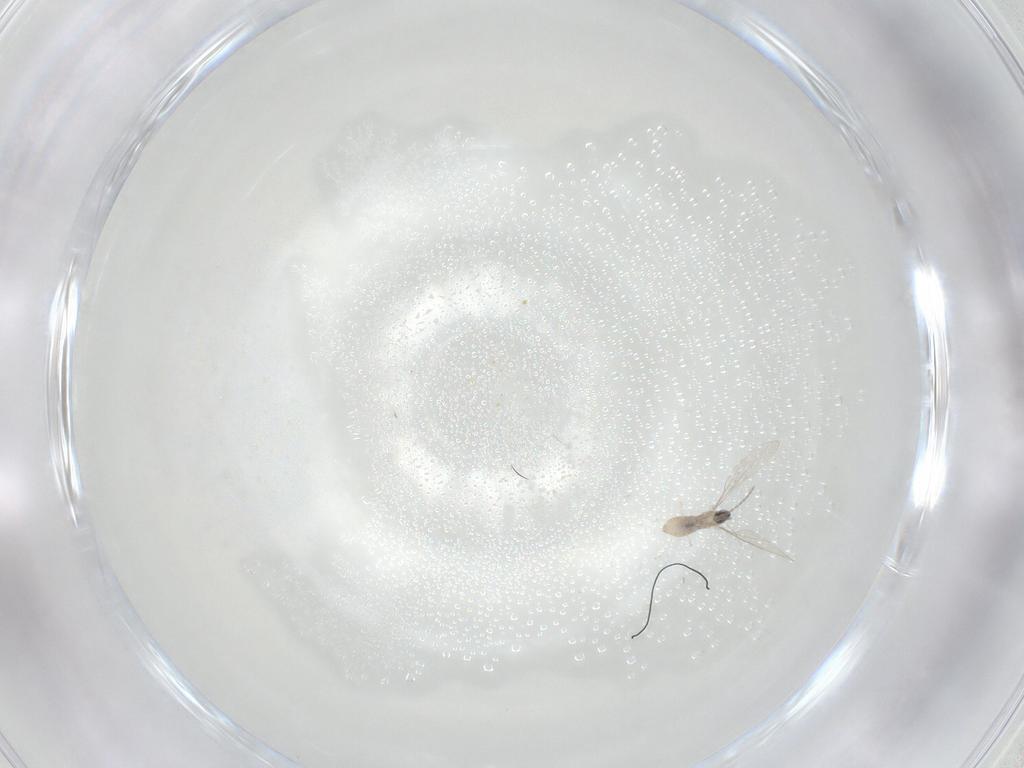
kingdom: Animalia
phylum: Arthropoda
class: Insecta
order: Diptera
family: Cecidomyiidae
